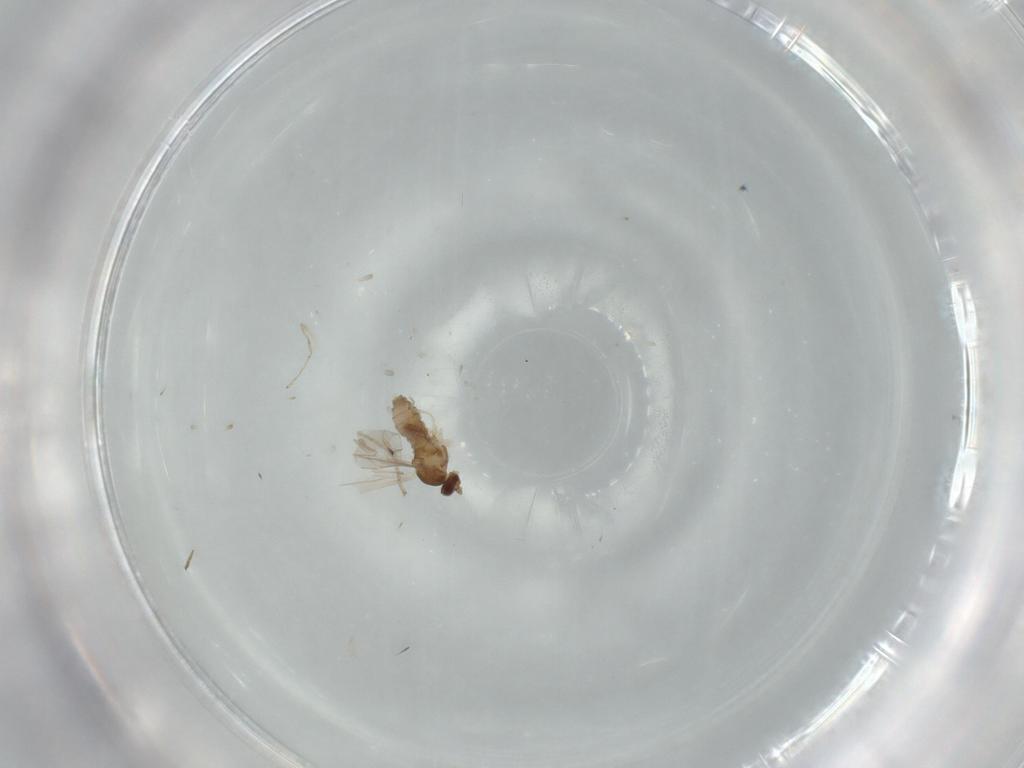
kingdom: Animalia
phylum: Arthropoda
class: Insecta
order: Diptera
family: Cecidomyiidae
